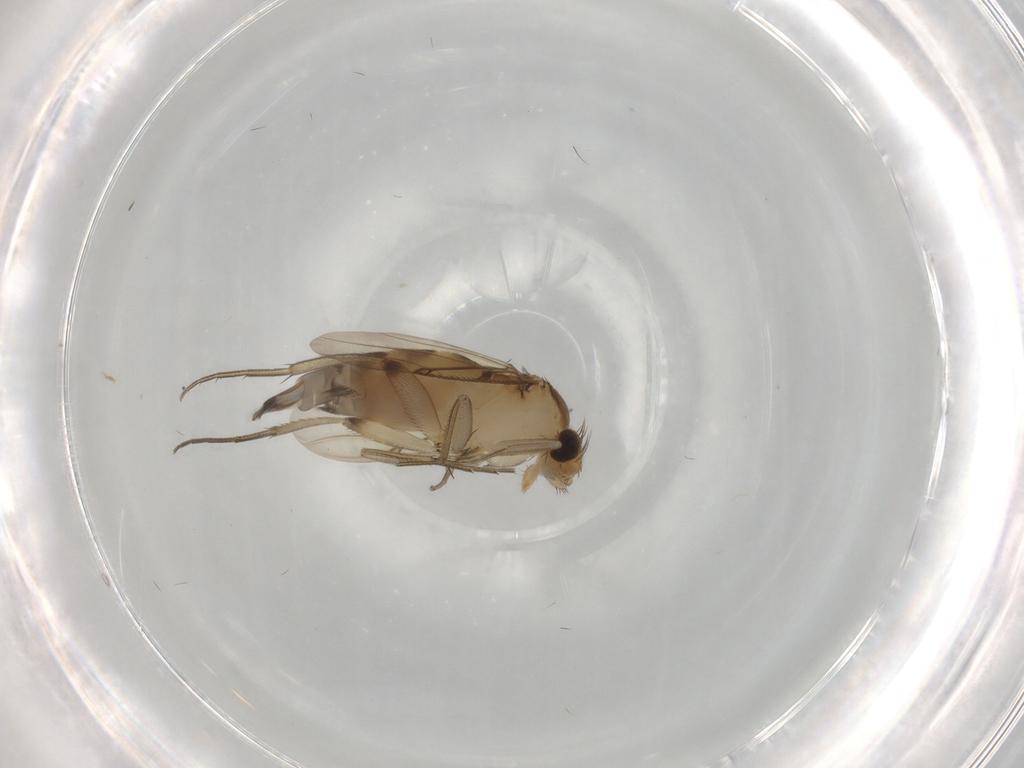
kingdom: Animalia
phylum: Arthropoda
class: Insecta
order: Diptera
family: Phoridae
